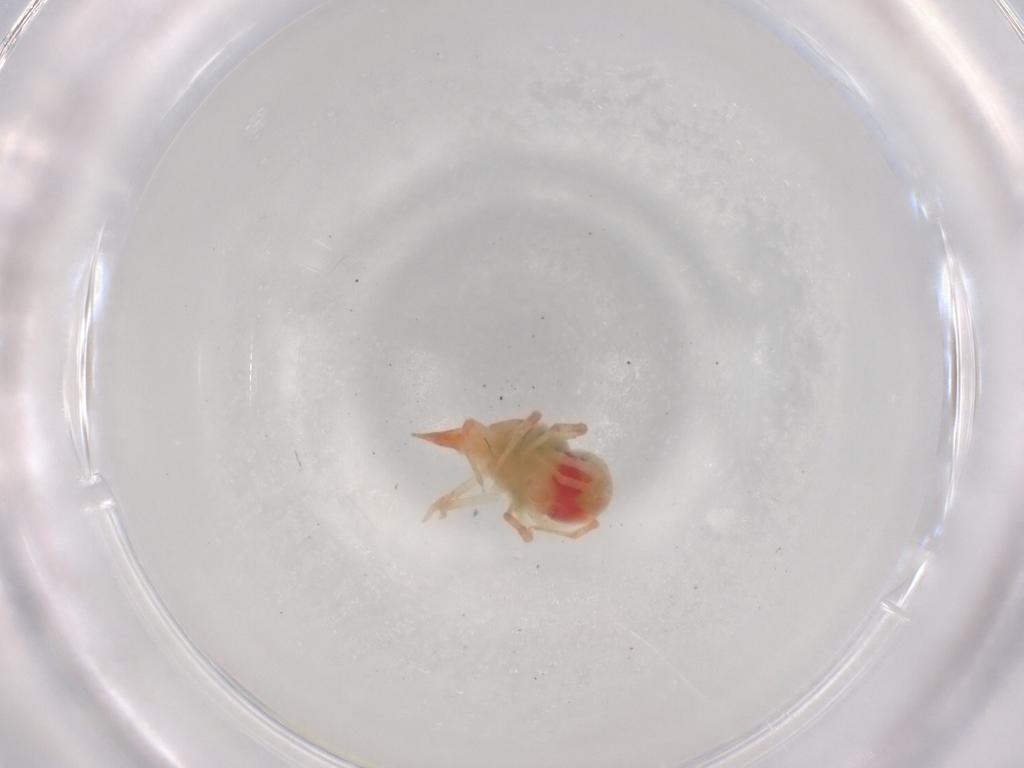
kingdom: Animalia
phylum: Arthropoda
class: Arachnida
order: Trombidiformes
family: Bdellidae
